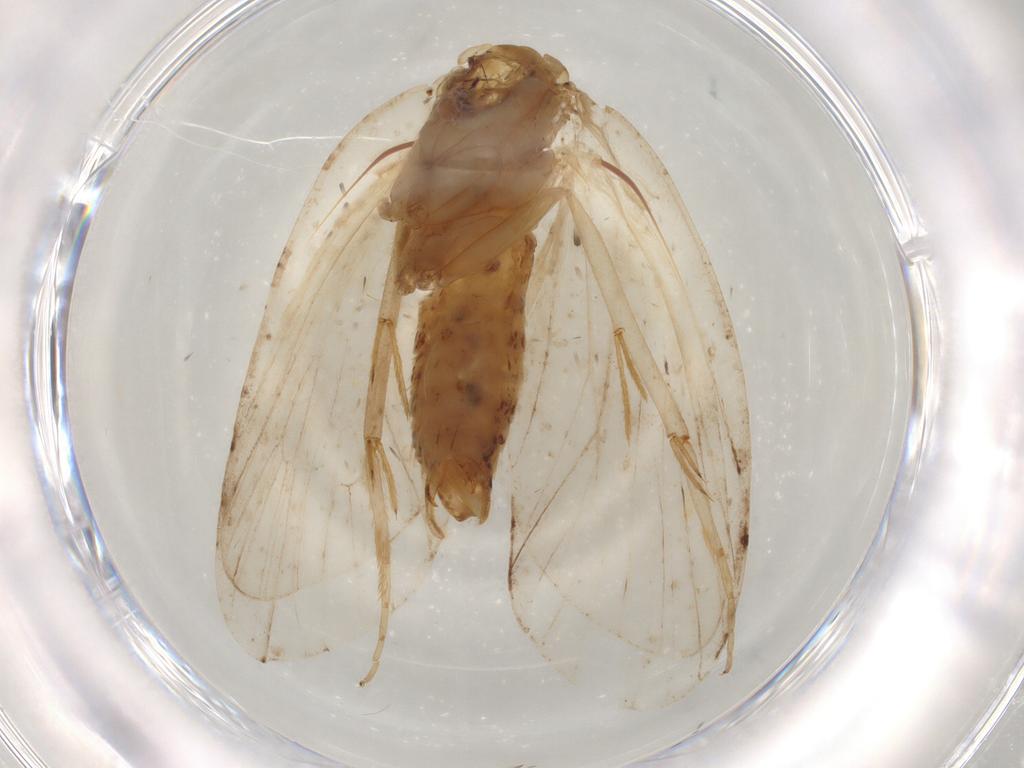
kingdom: Animalia
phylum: Arthropoda
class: Insecta
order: Lepidoptera
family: Eriocottidae
